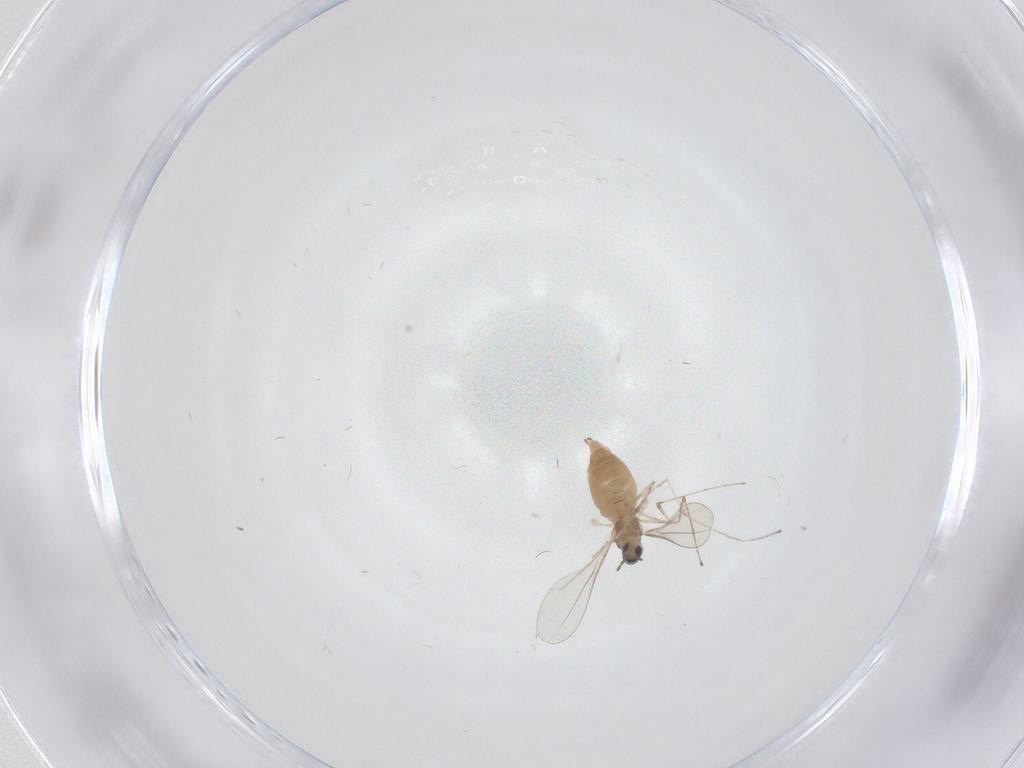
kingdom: Animalia
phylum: Arthropoda
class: Insecta
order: Diptera
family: Cecidomyiidae
